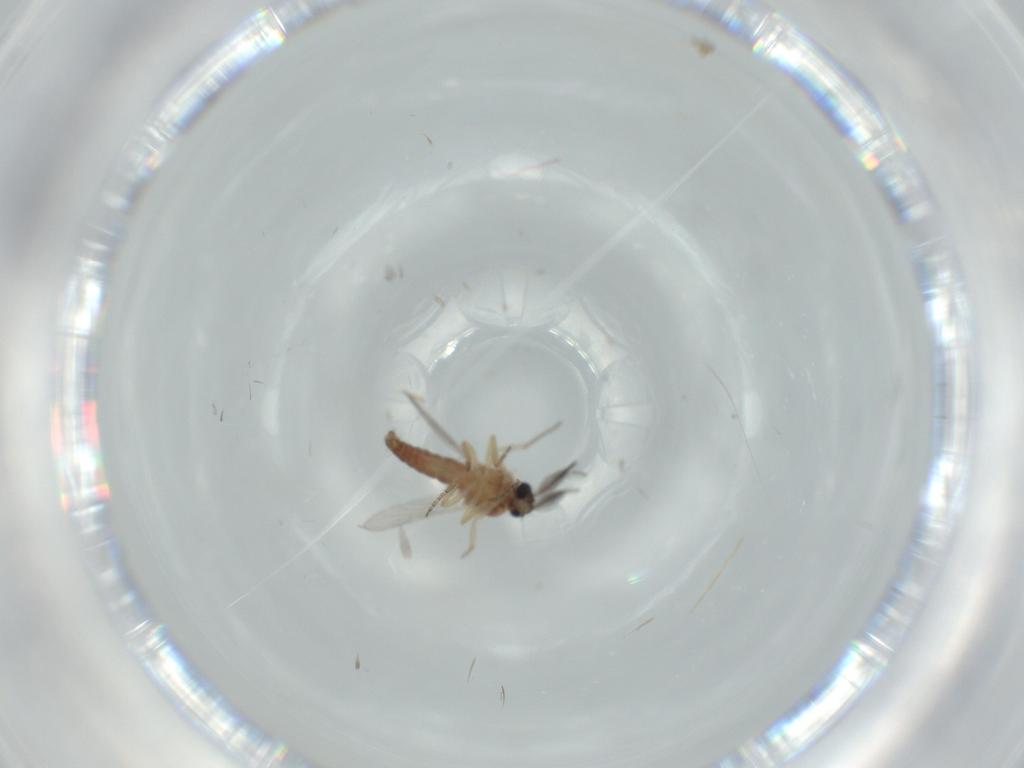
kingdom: Animalia
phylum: Arthropoda
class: Insecta
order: Diptera
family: Ceratopogonidae
